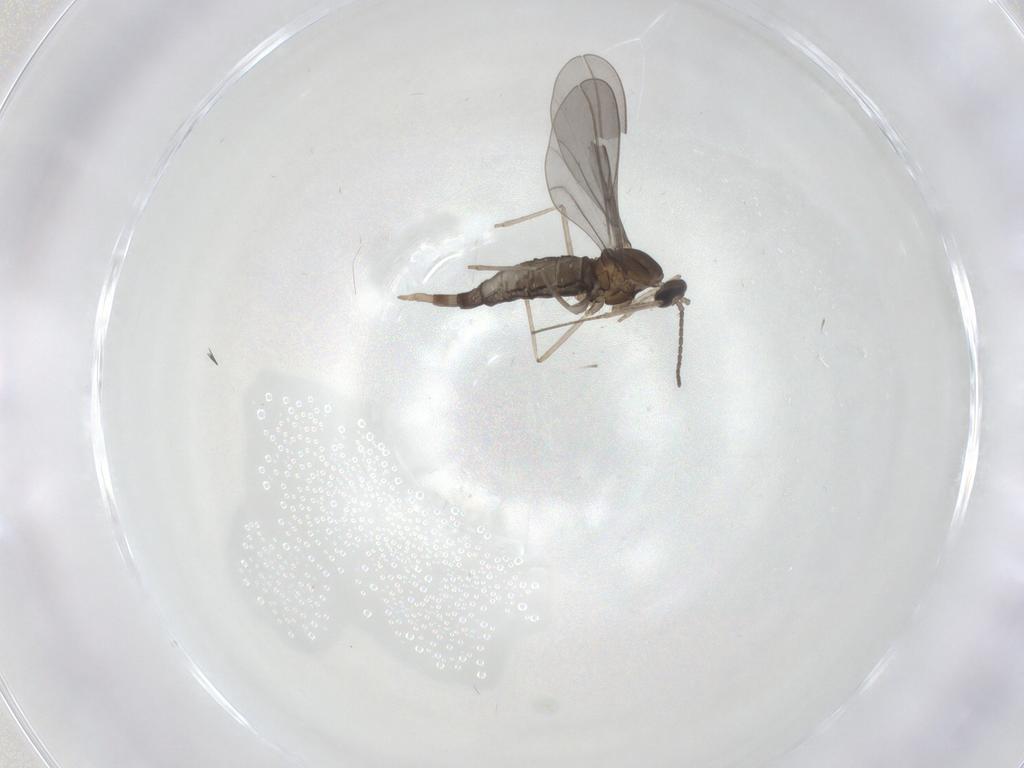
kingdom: Animalia
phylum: Arthropoda
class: Insecta
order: Diptera
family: Cecidomyiidae
